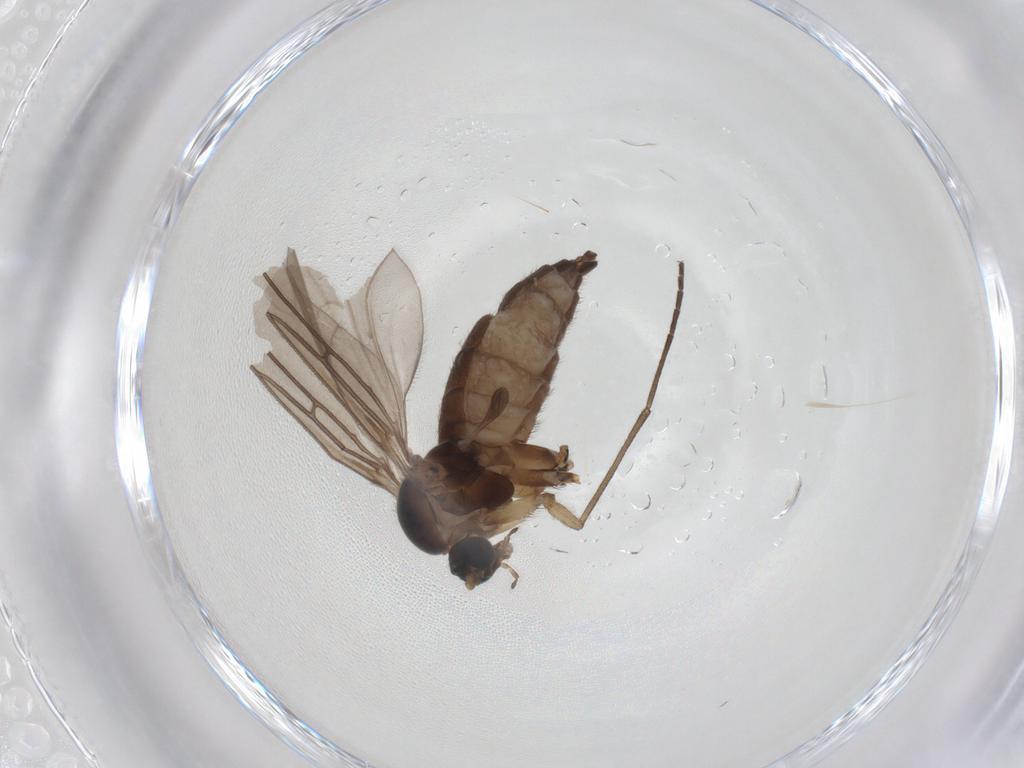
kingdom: Animalia
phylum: Arthropoda
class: Insecta
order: Diptera
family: Sciaridae
